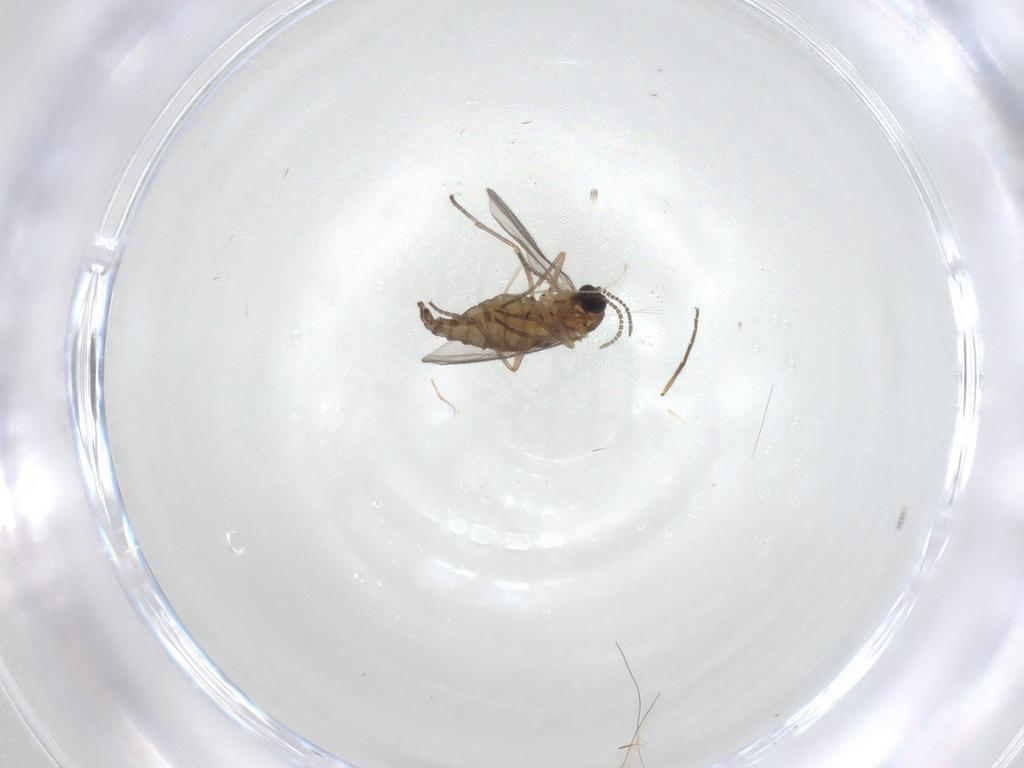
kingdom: Animalia
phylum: Arthropoda
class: Insecta
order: Diptera
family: Sciaridae
